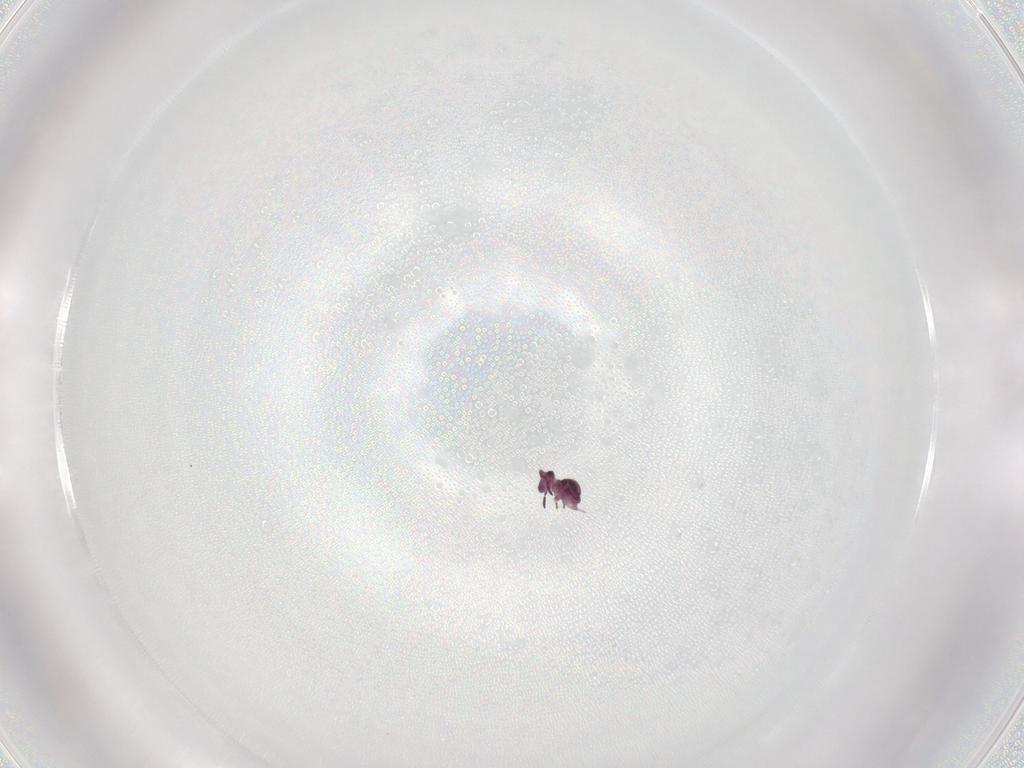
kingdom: Animalia
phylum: Arthropoda
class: Collembola
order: Symphypleona
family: Sminthurididae
